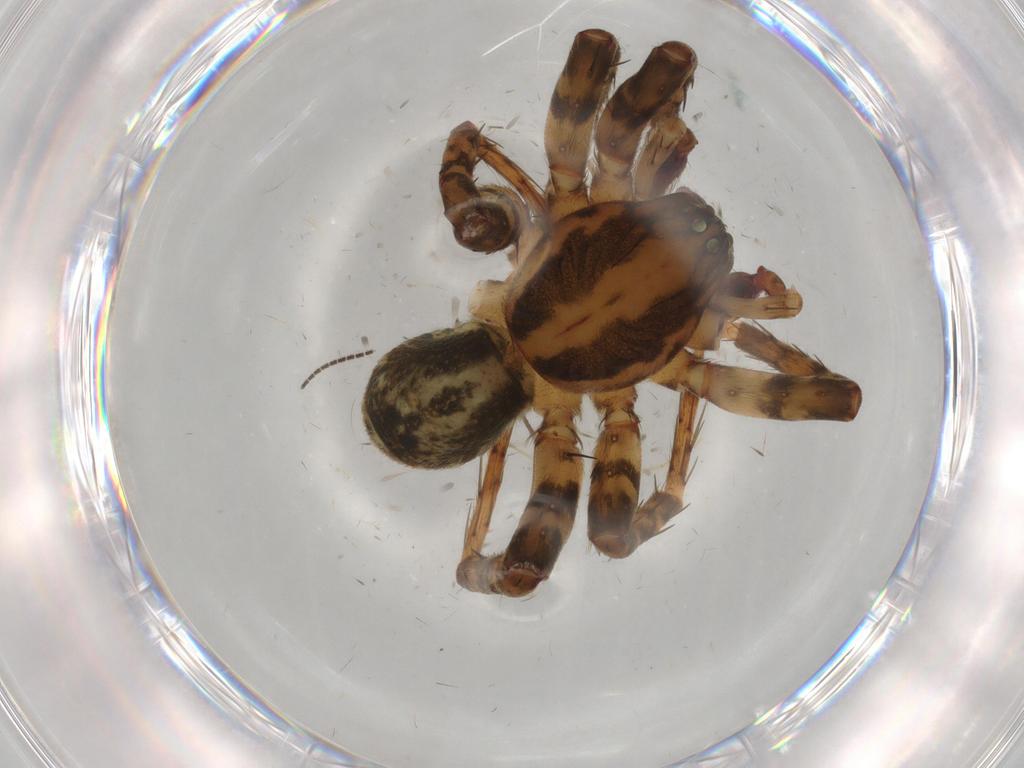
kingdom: Animalia
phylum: Arthropoda
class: Arachnida
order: Araneae
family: Anyphaenidae
